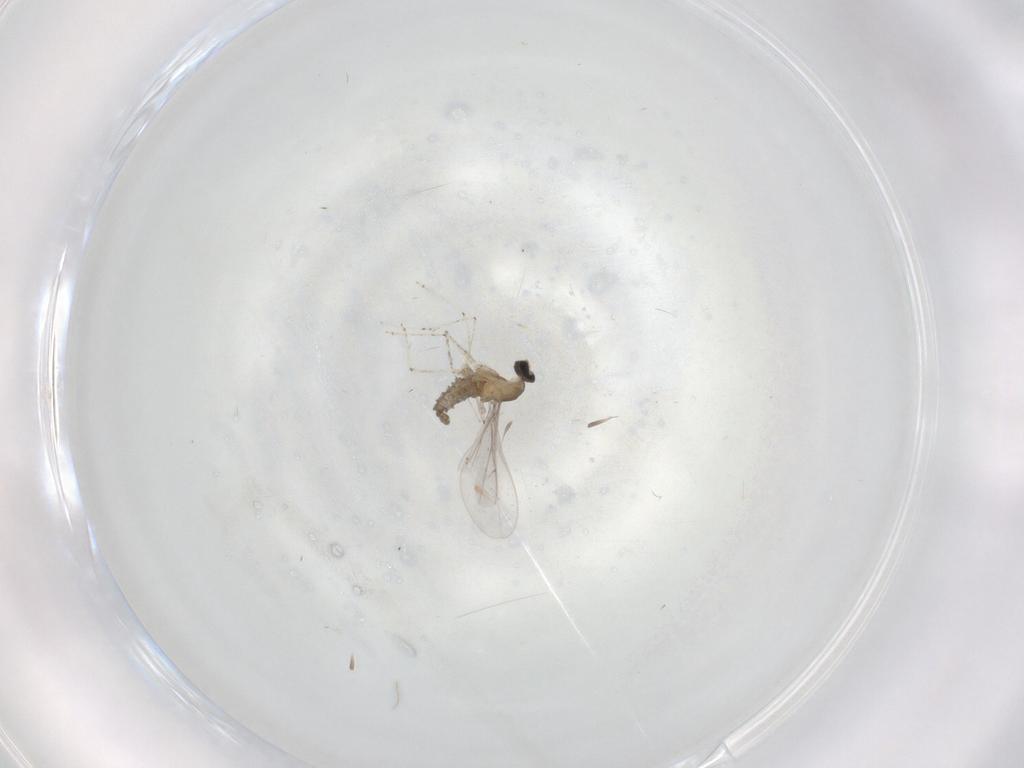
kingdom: Animalia
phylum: Arthropoda
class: Insecta
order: Diptera
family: Cecidomyiidae
